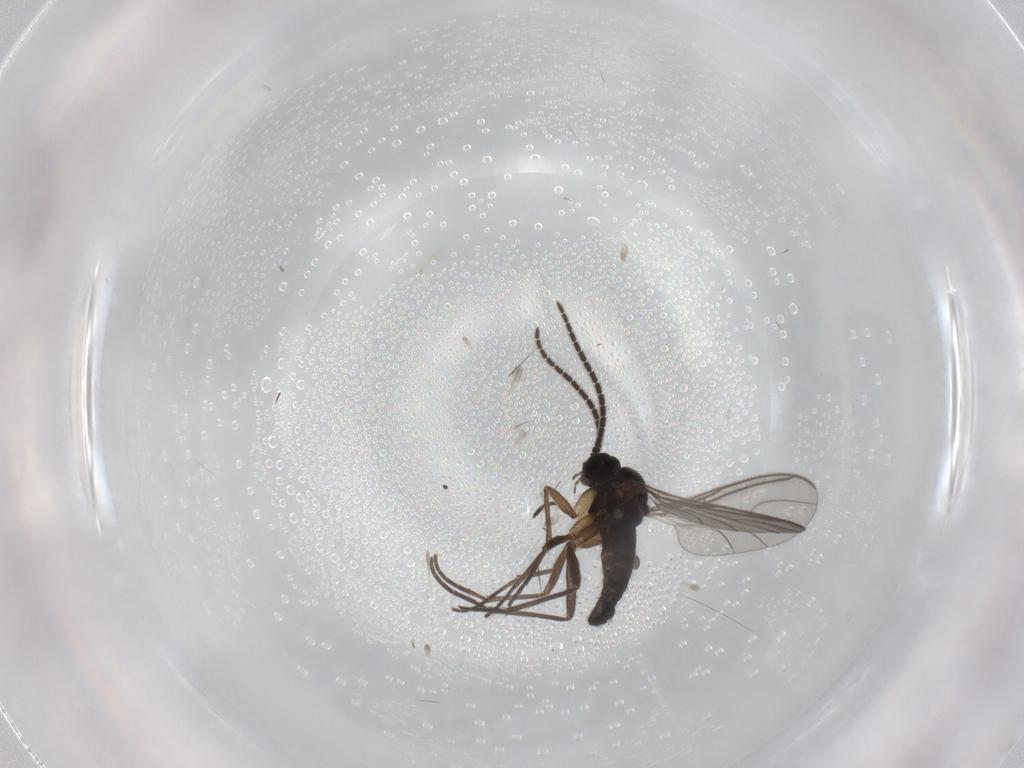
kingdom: Animalia
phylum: Arthropoda
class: Insecta
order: Diptera
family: Sciaridae
